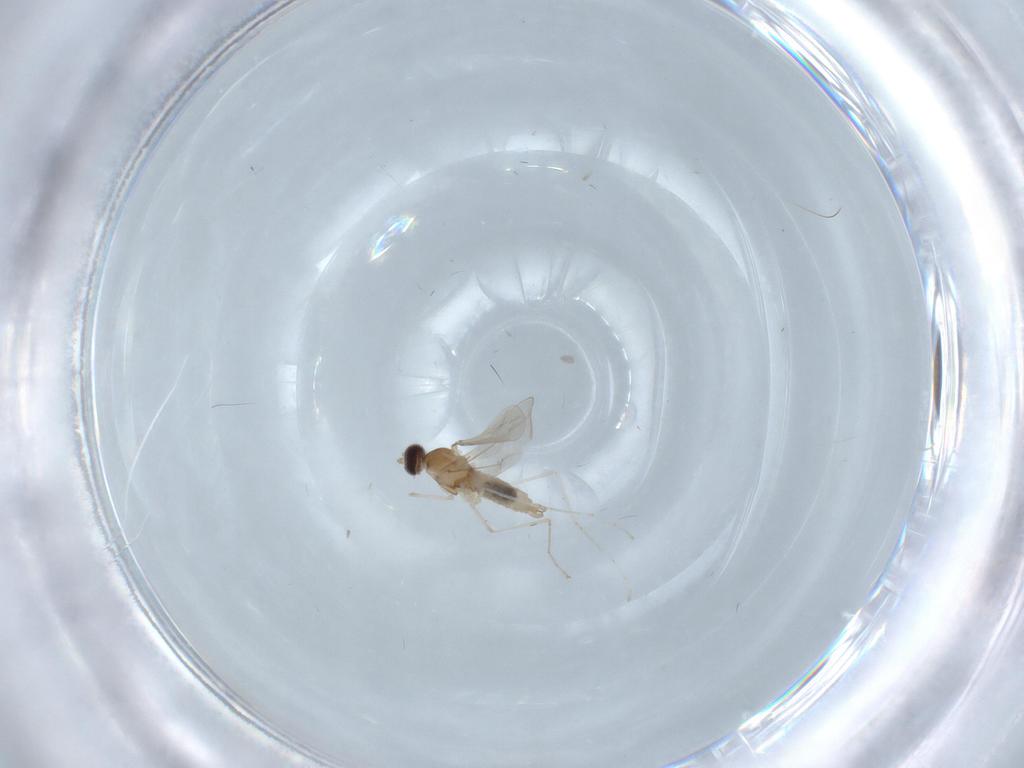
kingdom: Animalia
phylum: Arthropoda
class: Insecta
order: Diptera
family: Cecidomyiidae
